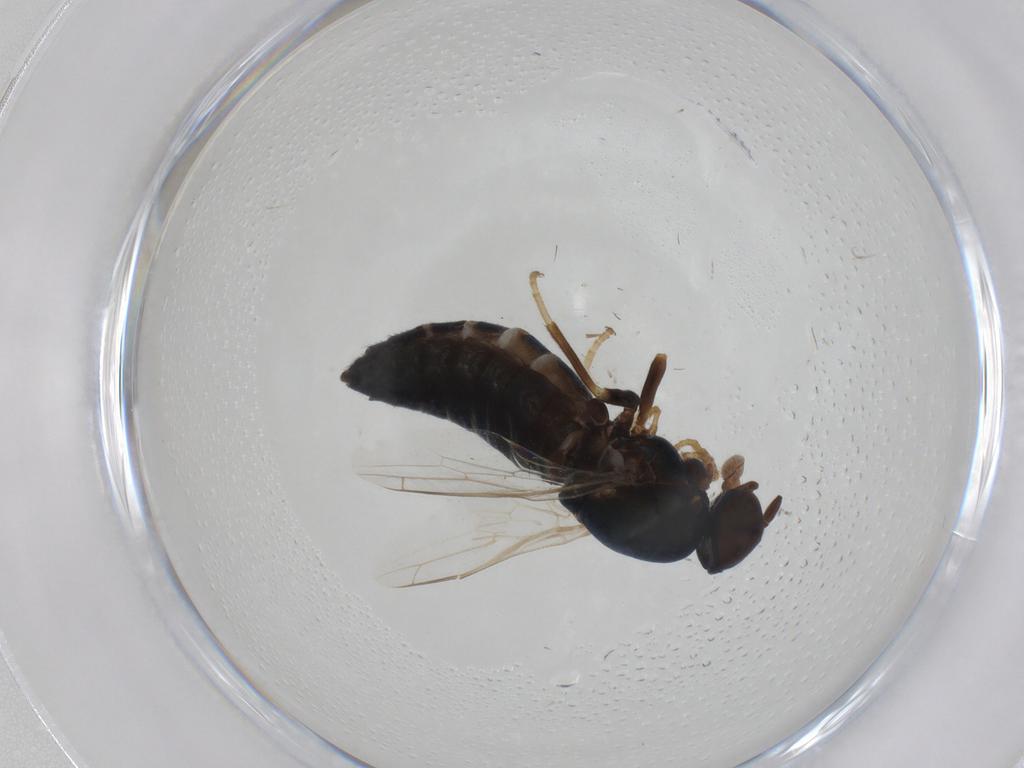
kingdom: Animalia
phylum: Arthropoda
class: Insecta
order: Diptera
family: Scenopinidae
